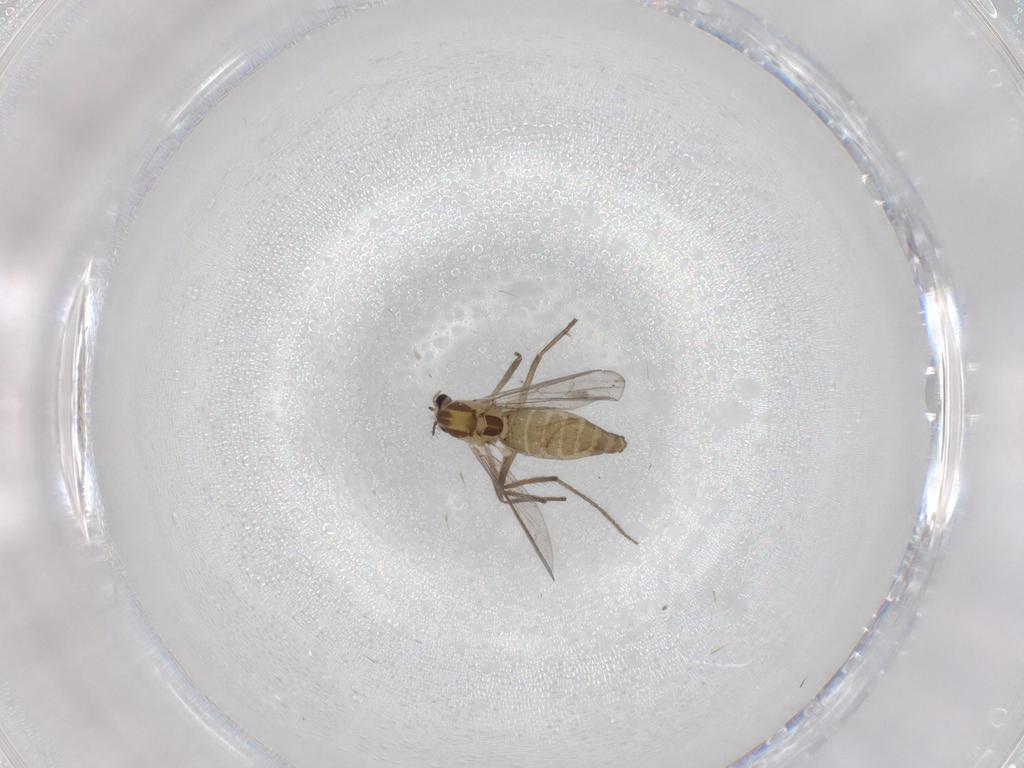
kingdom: Animalia
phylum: Arthropoda
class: Insecta
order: Diptera
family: Chironomidae
